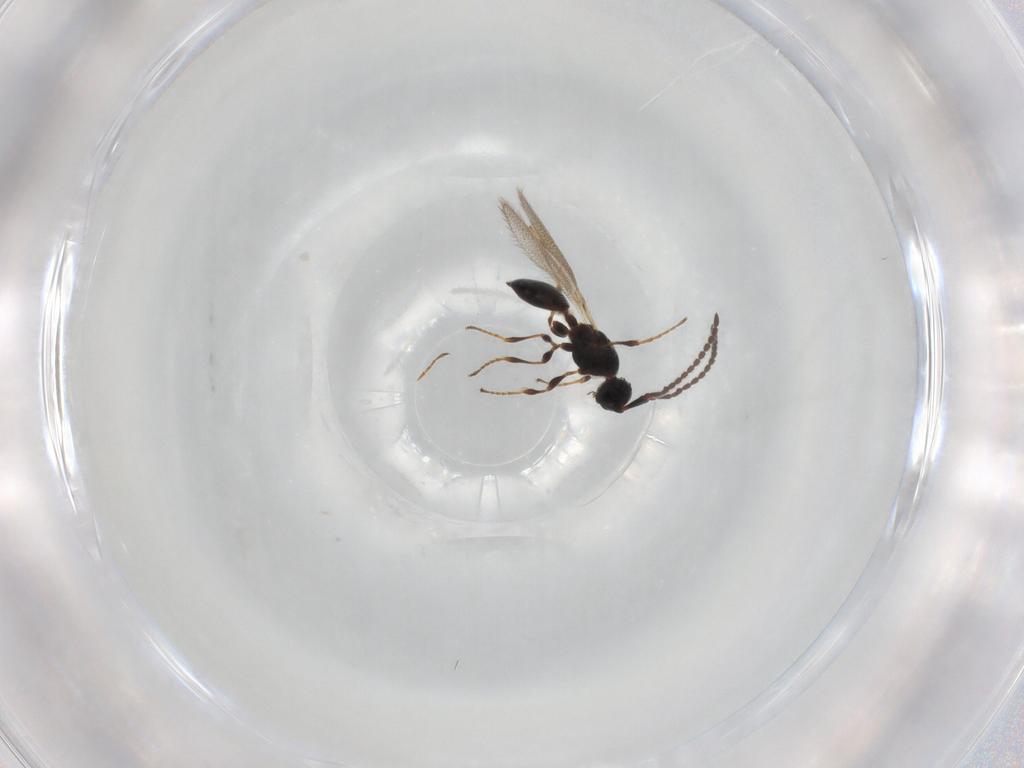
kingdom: Animalia
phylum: Arthropoda
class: Insecta
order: Hymenoptera
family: Diapriidae
